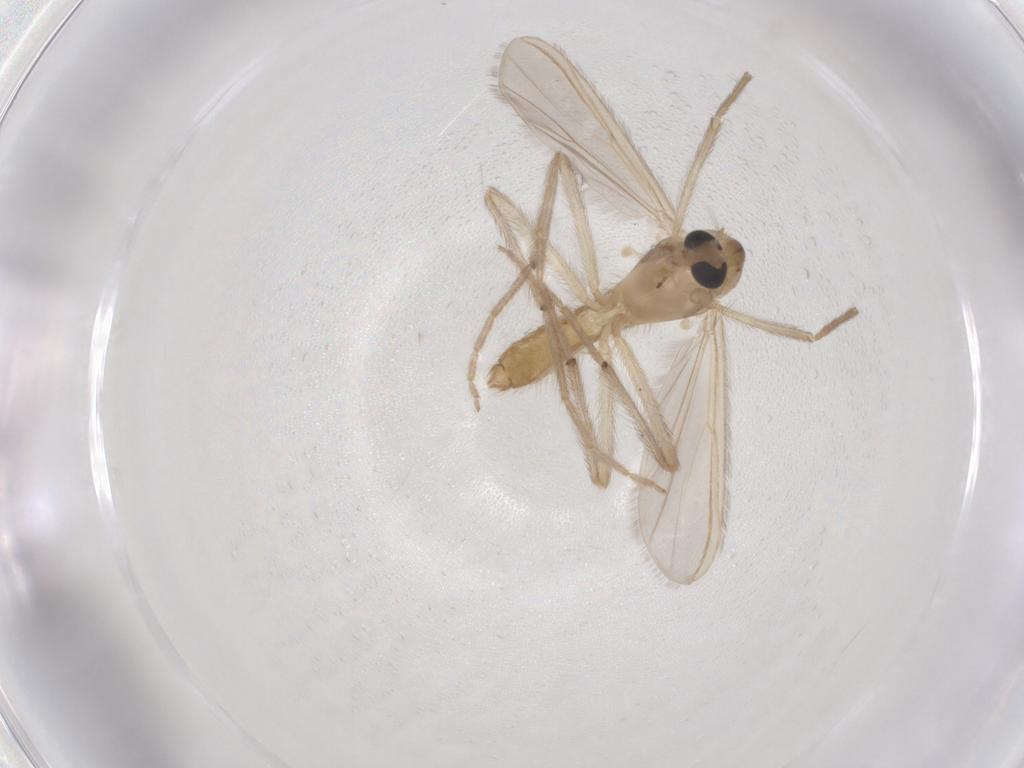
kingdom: Animalia
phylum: Arthropoda
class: Insecta
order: Diptera
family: Chironomidae
